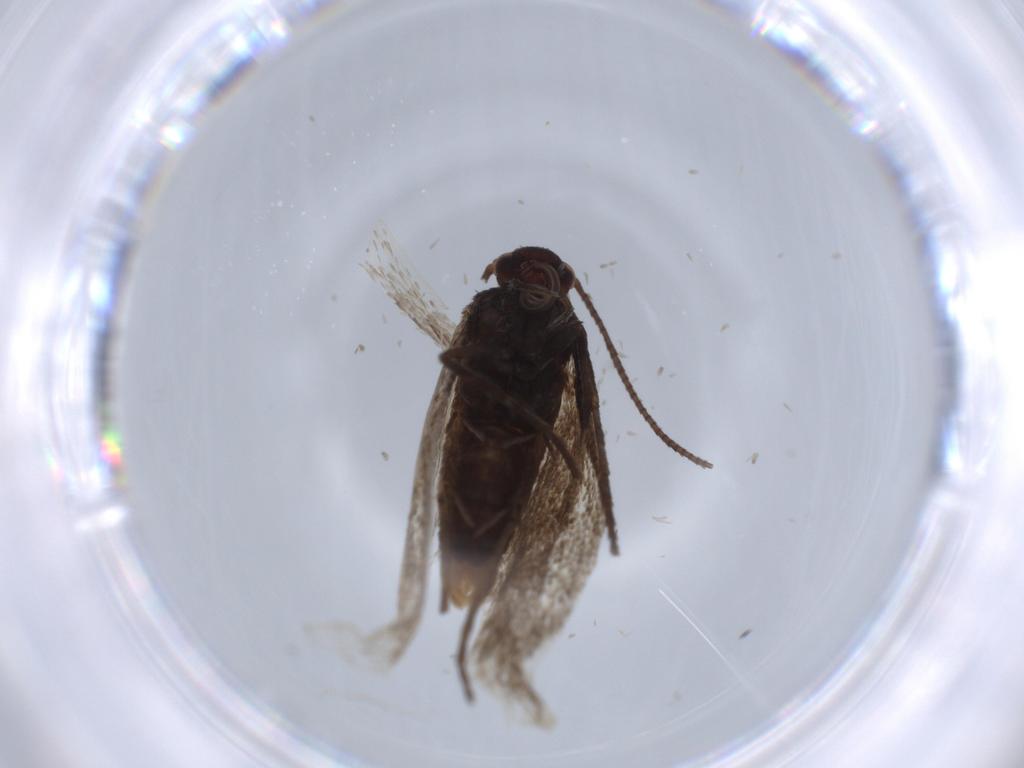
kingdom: Animalia
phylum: Arthropoda
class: Insecta
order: Lepidoptera
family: Gracillariidae
